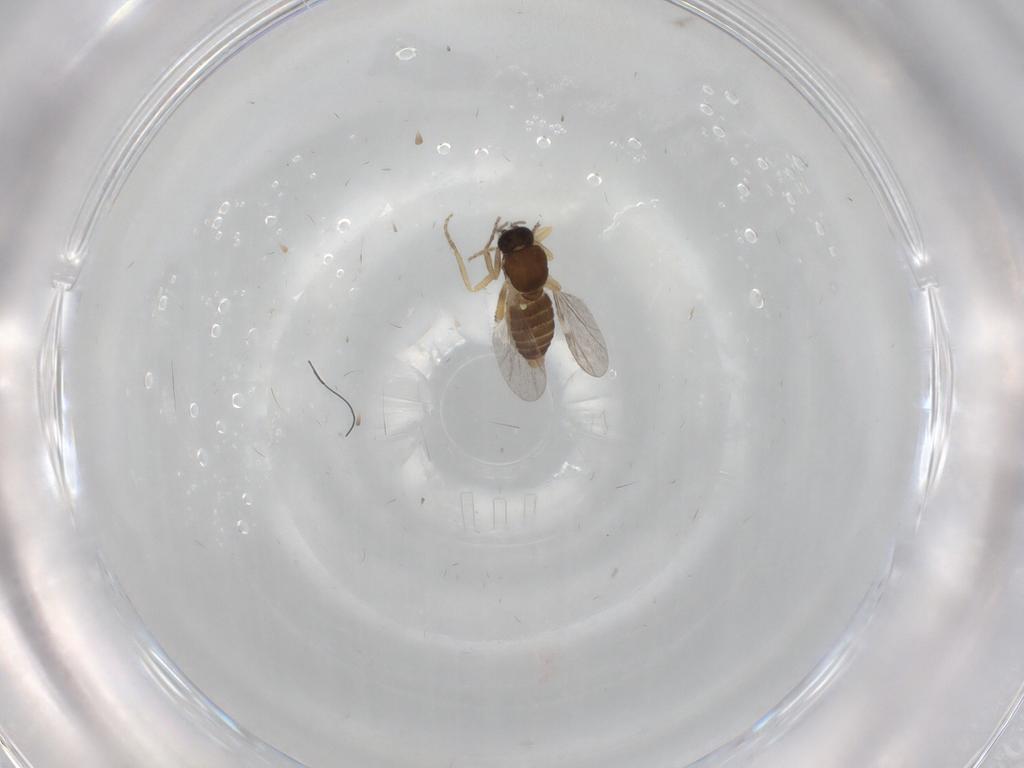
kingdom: Animalia
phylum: Arthropoda
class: Insecta
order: Diptera
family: Ceratopogonidae
